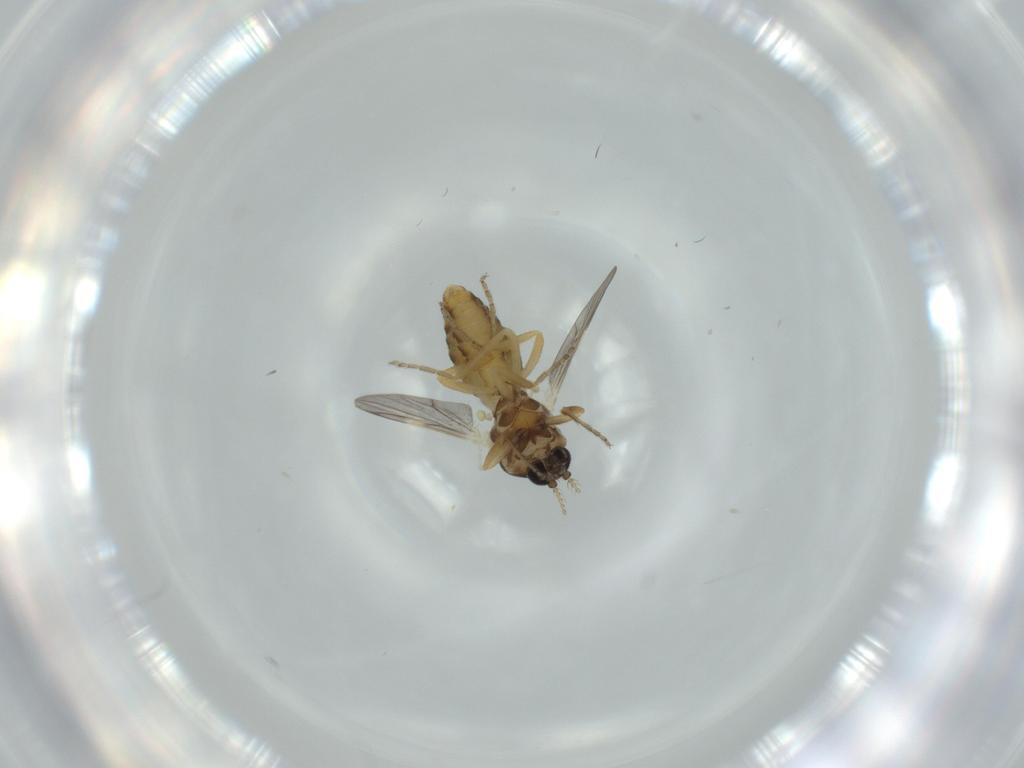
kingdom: Animalia
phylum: Arthropoda
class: Insecta
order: Diptera
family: Ceratopogonidae
